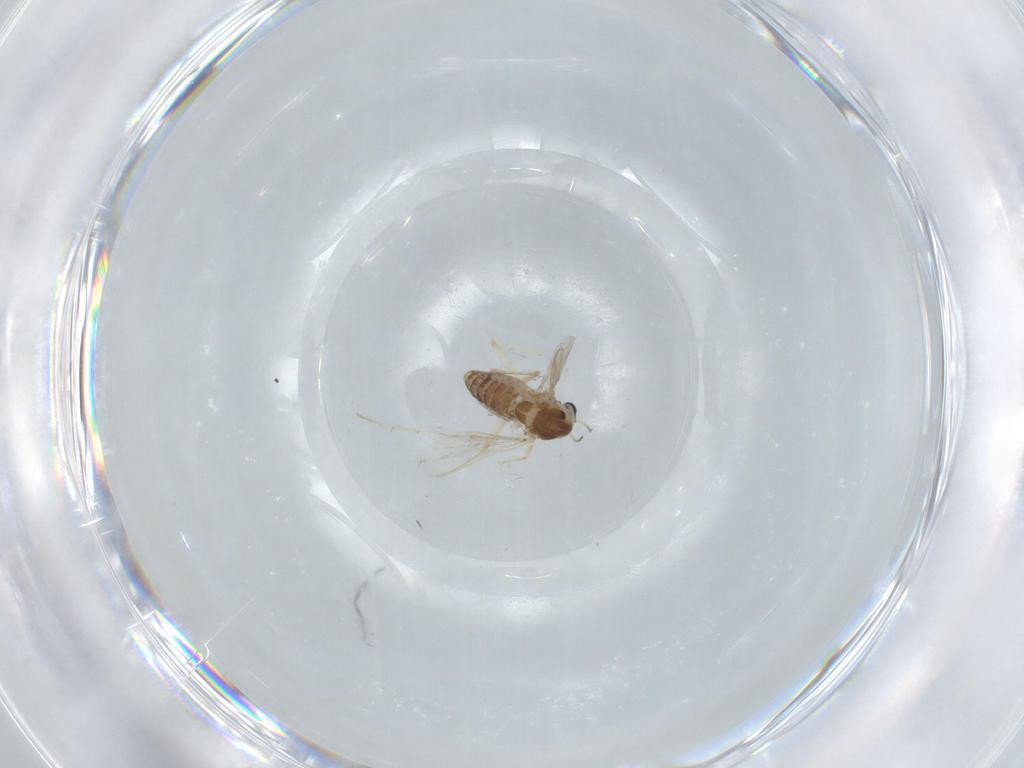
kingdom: Animalia
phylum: Arthropoda
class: Insecta
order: Diptera
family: Chironomidae
